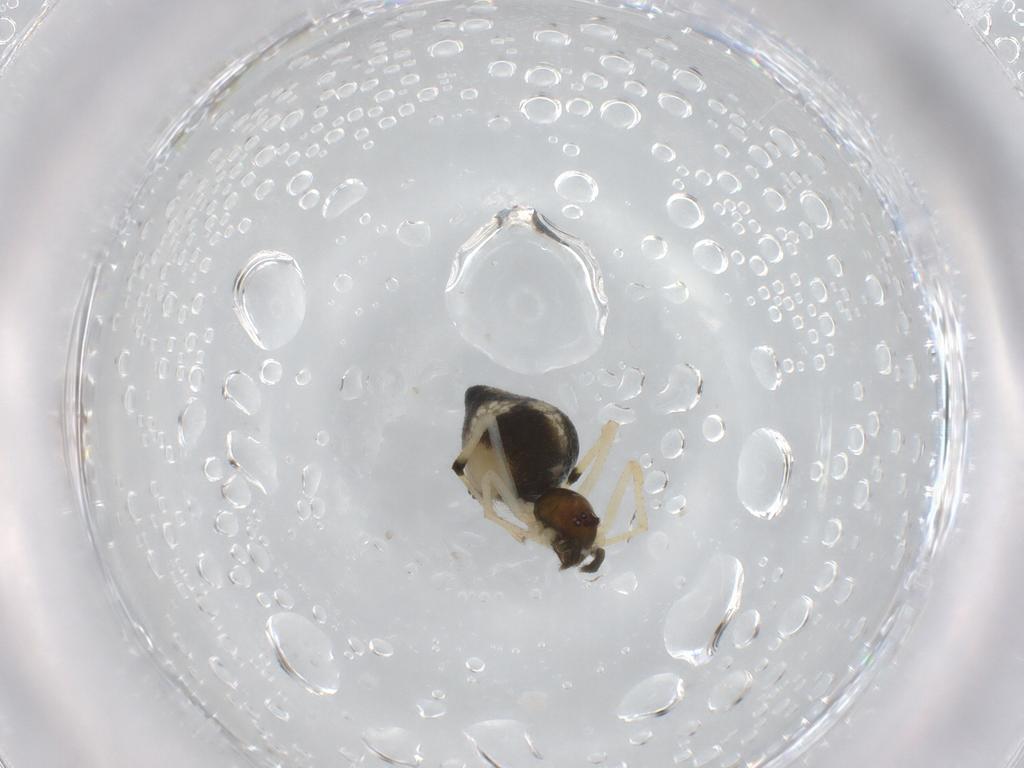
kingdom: Animalia
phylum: Arthropoda
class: Arachnida
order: Araneae
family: Theridiidae
